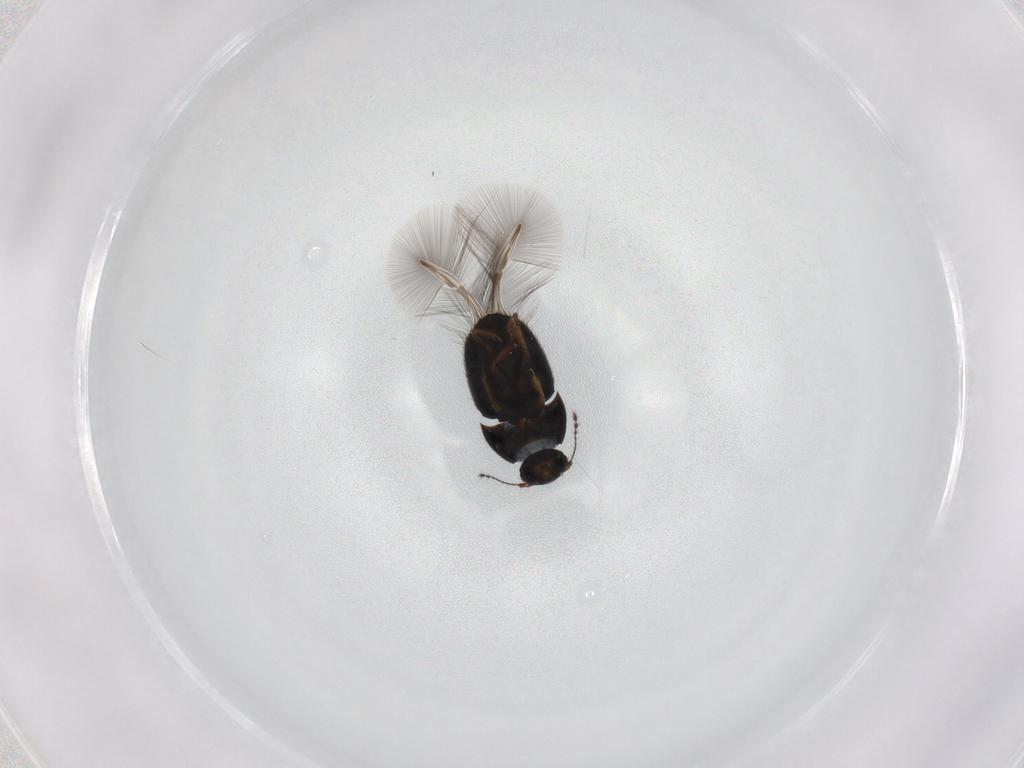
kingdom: Animalia
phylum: Arthropoda
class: Insecta
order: Coleoptera
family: Ptiliidae
